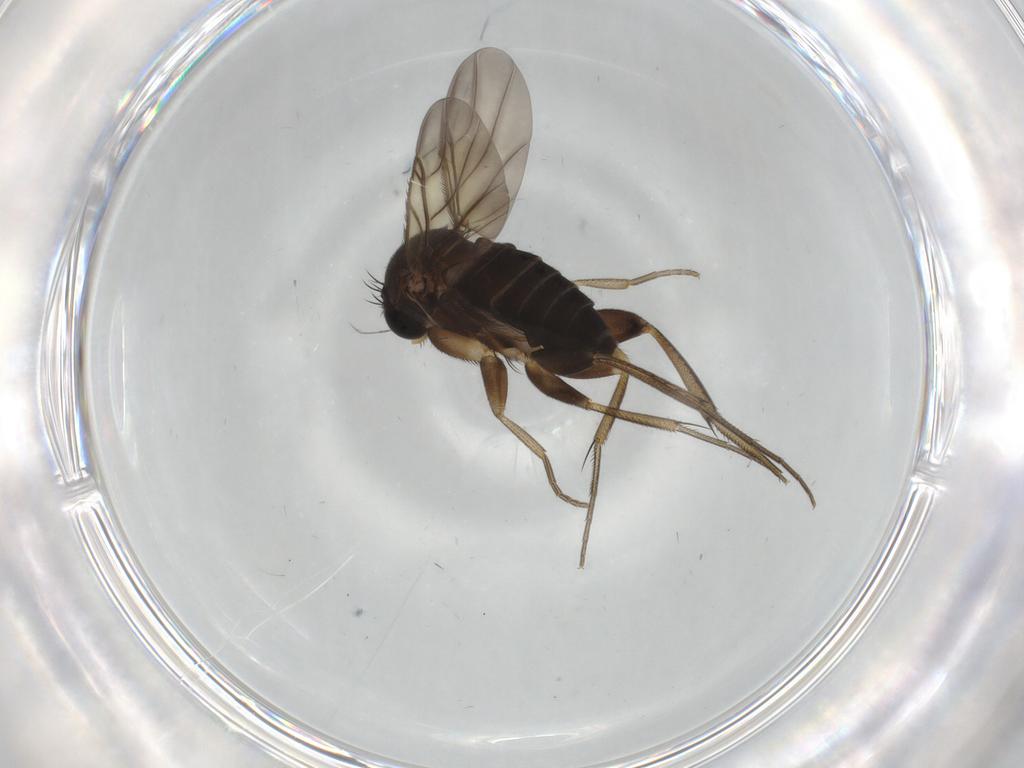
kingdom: Animalia
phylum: Arthropoda
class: Insecta
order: Diptera
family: Phoridae
